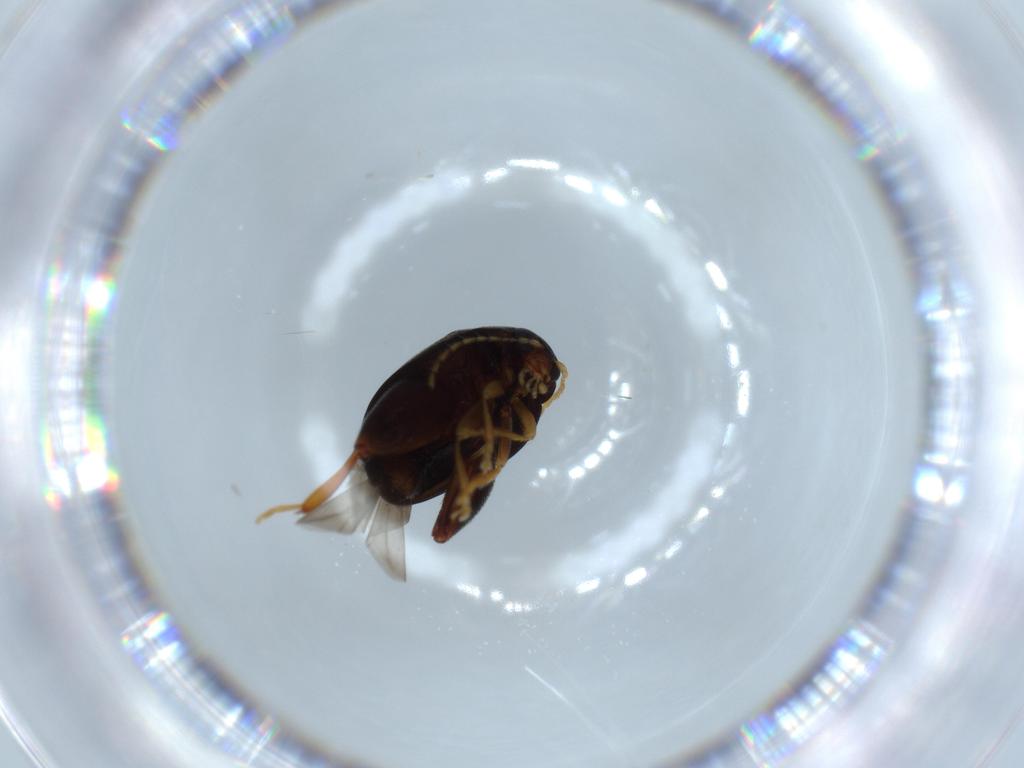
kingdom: Animalia
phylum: Arthropoda
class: Insecta
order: Coleoptera
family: Chrysomelidae
